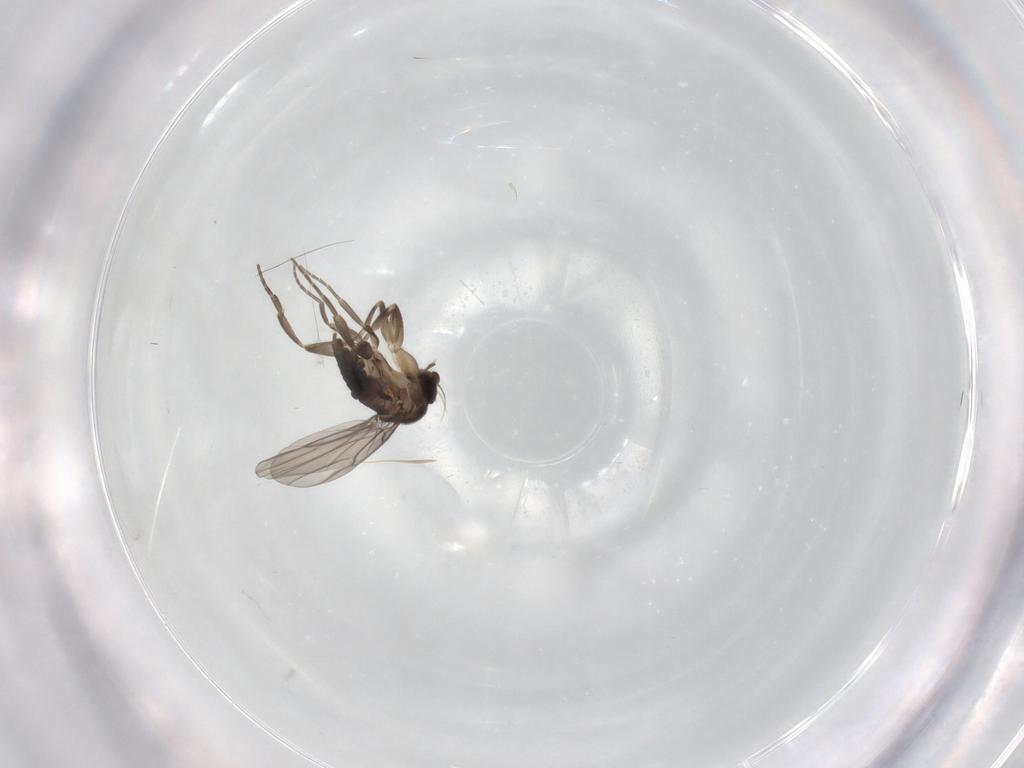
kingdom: Animalia
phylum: Arthropoda
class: Insecta
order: Diptera
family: Phoridae
